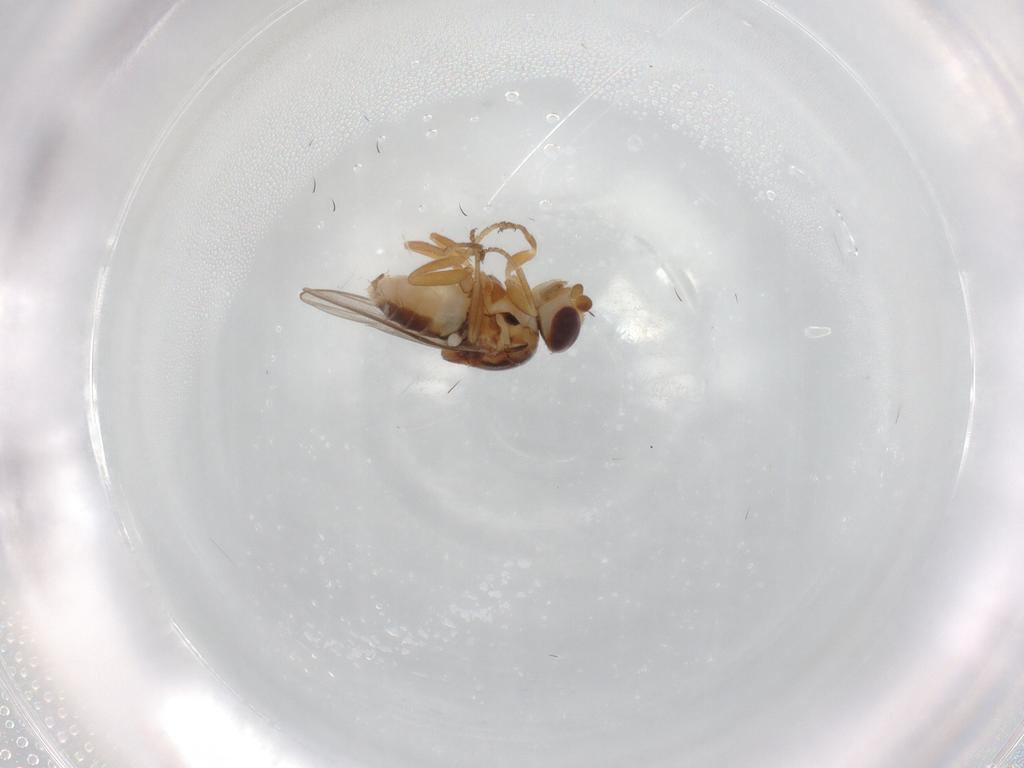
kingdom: Animalia
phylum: Arthropoda
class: Insecta
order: Diptera
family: Chloropidae
